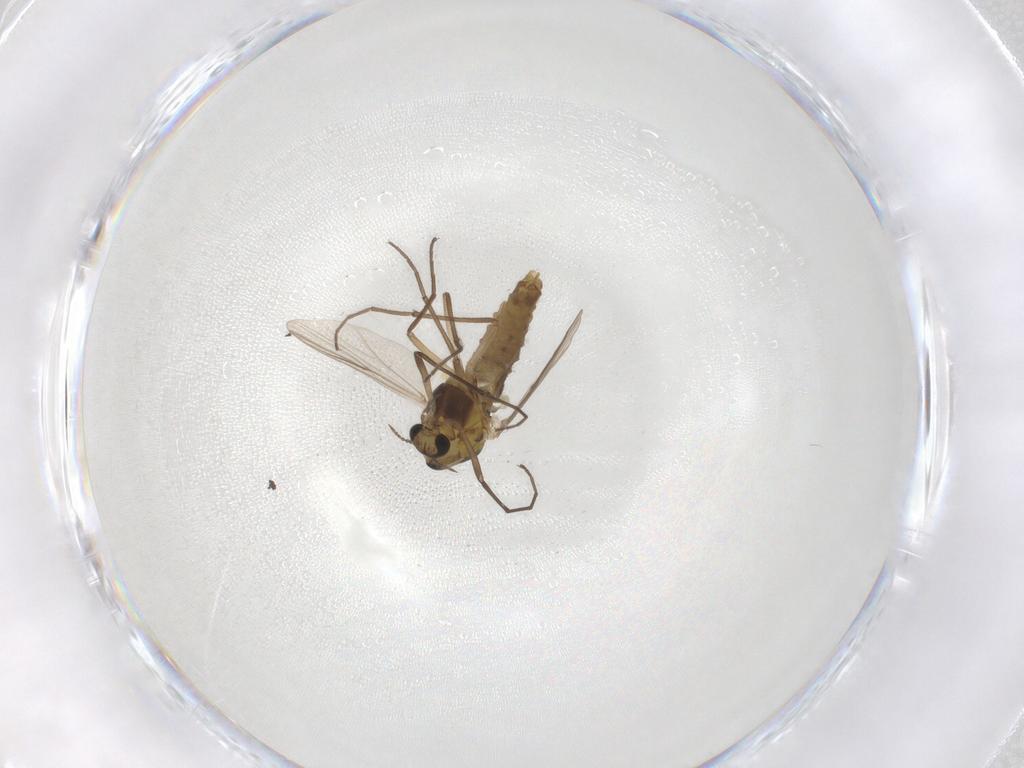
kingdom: Animalia
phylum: Arthropoda
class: Insecta
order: Diptera
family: Chironomidae
